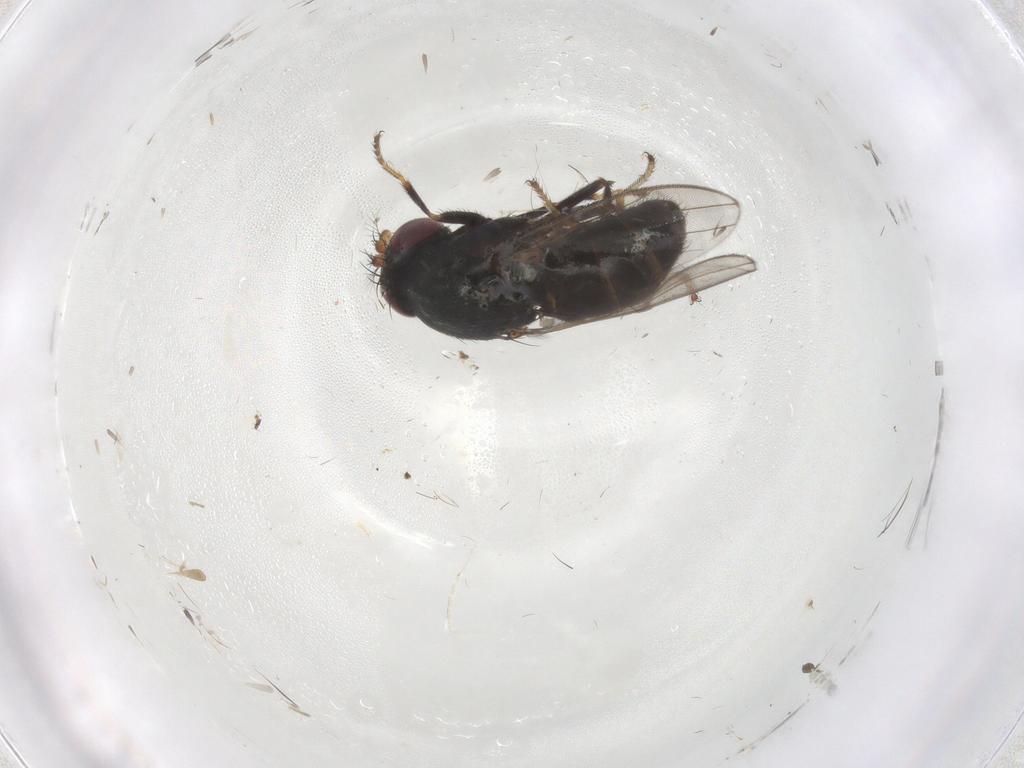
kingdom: Animalia
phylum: Arthropoda
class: Insecta
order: Diptera
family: Ephydridae
